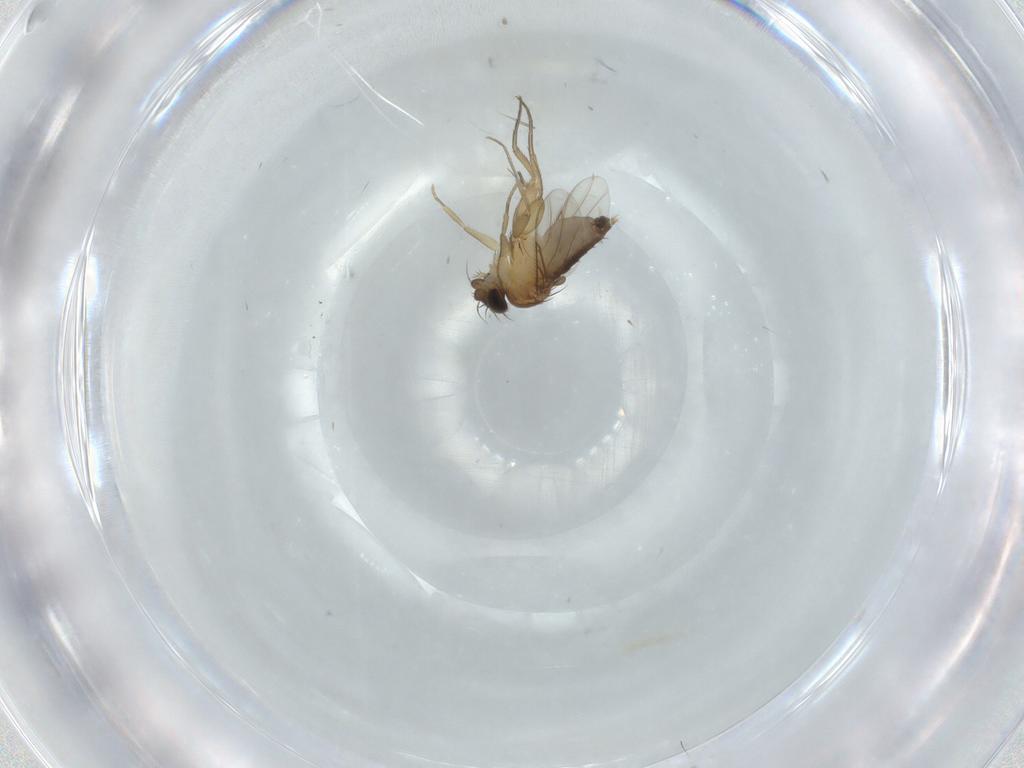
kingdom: Animalia
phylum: Arthropoda
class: Insecta
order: Diptera
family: Phoridae
